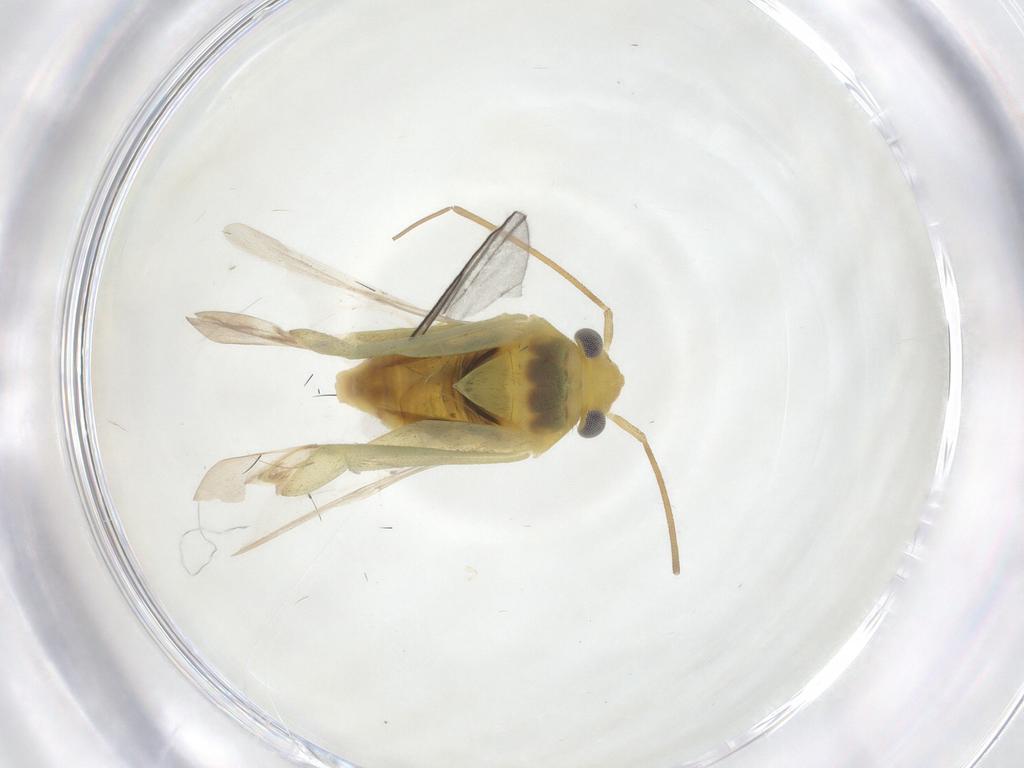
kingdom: Animalia
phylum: Arthropoda
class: Insecta
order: Hemiptera
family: Miridae
